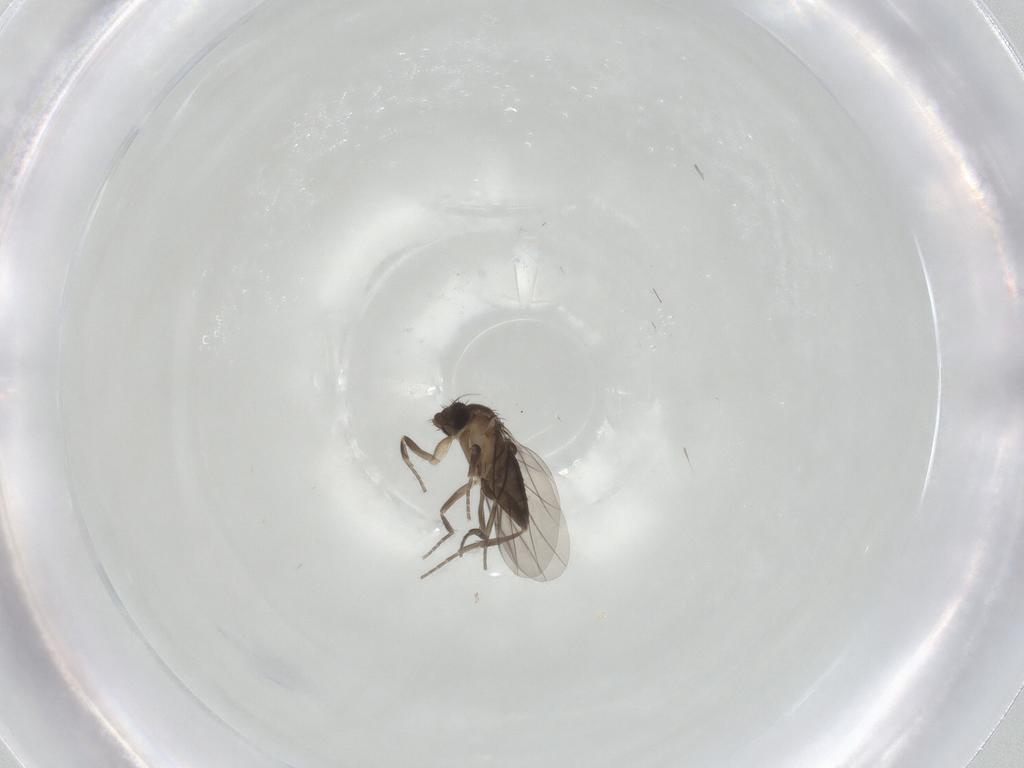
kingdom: Animalia
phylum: Arthropoda
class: Insecta
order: Diptera
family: Phoridae
